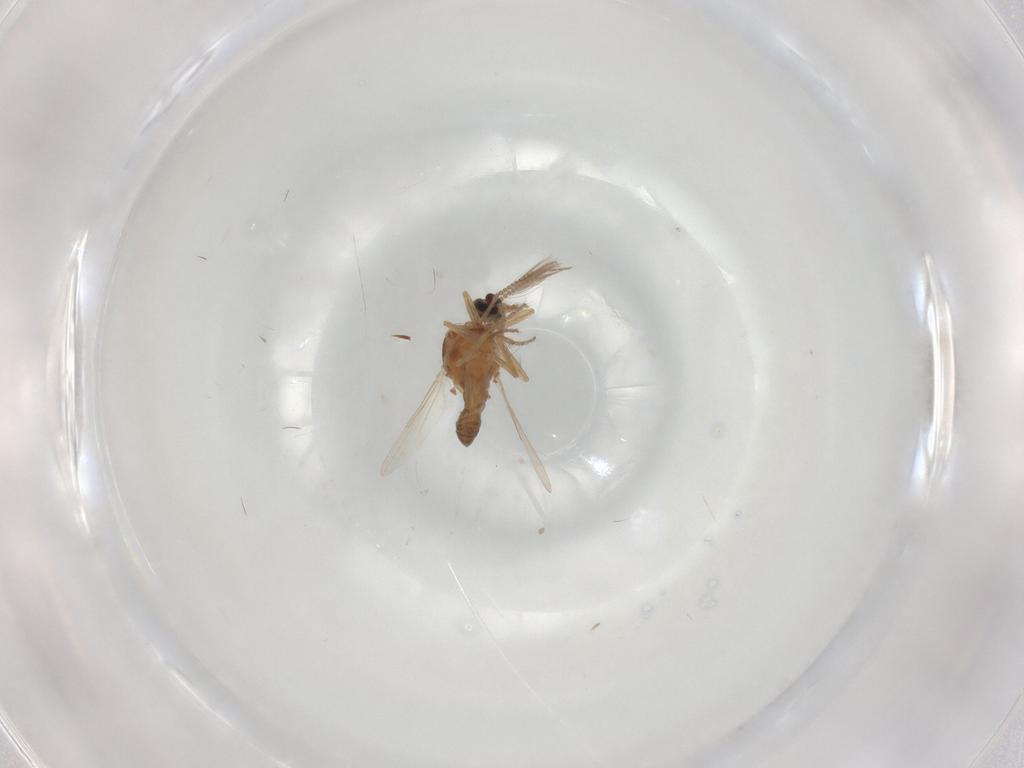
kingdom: Animalia
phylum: Arthropoda
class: Insecta
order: Diptera
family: Ceratopogonidae
